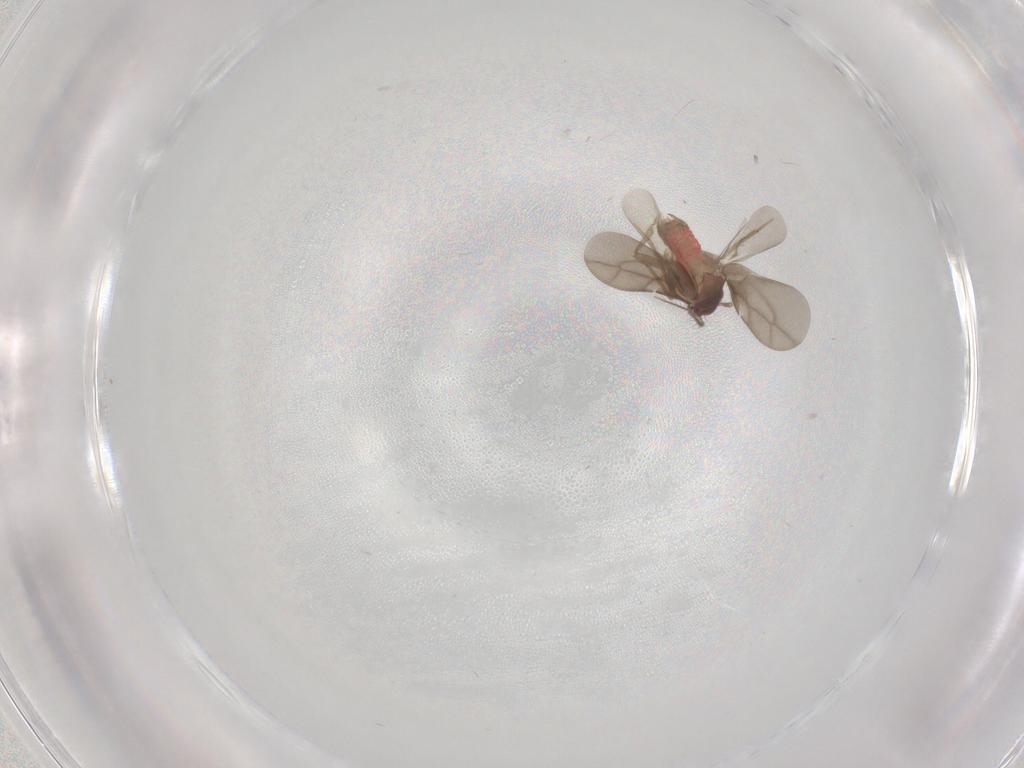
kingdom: Animalia
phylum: Arthropoda
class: Insecta
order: Hemiptera
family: Ceratocombidae
